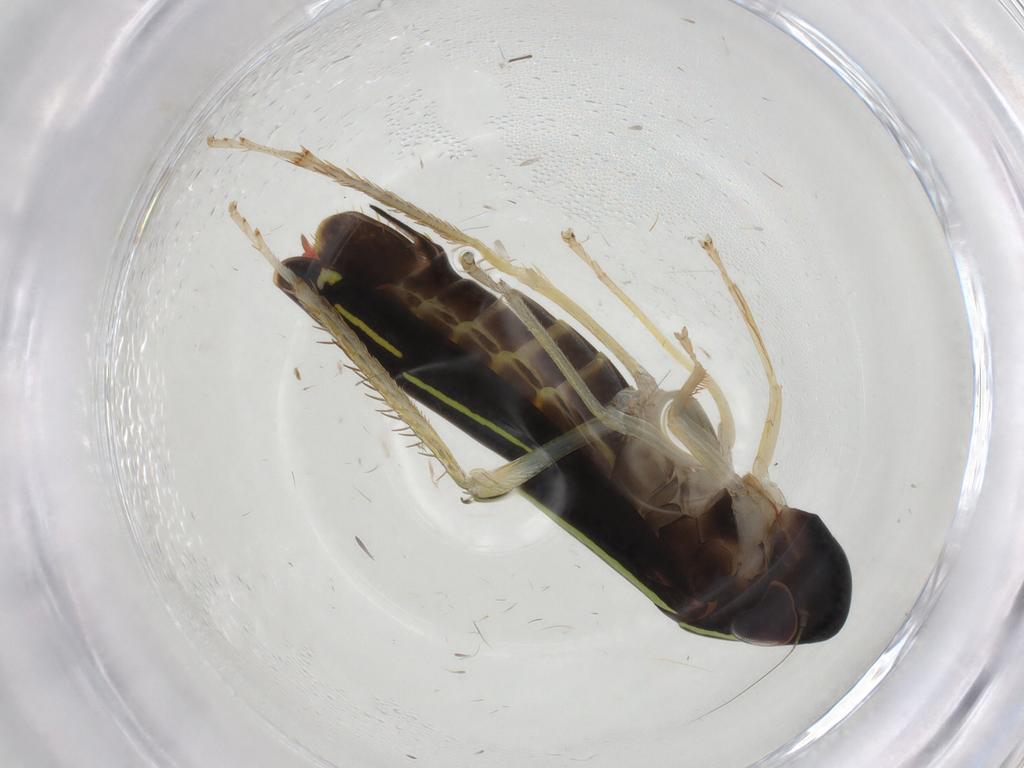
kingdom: Animalia
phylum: Arthropoda
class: Insecta
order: Hemiptera
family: Cicadellidae
